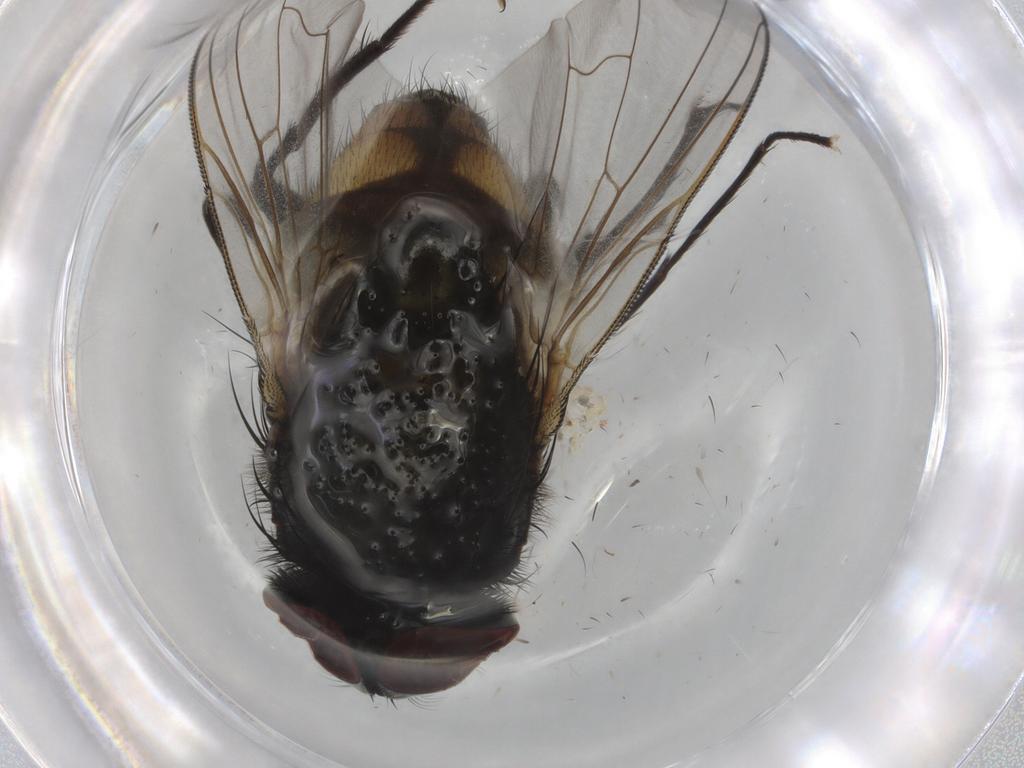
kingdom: Animalia
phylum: Arthropoda
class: Insecta
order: Diptera
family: Muscidae
